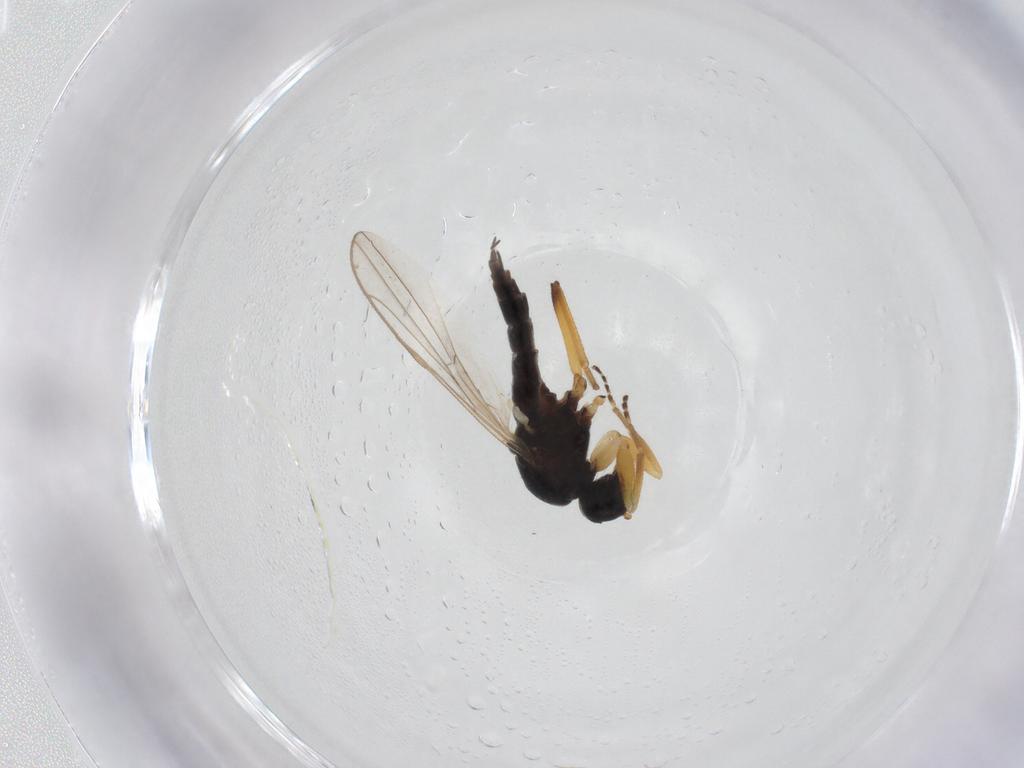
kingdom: Animalia
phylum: Arthropoda
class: Insecta
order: Diptera
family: Hybotidae
